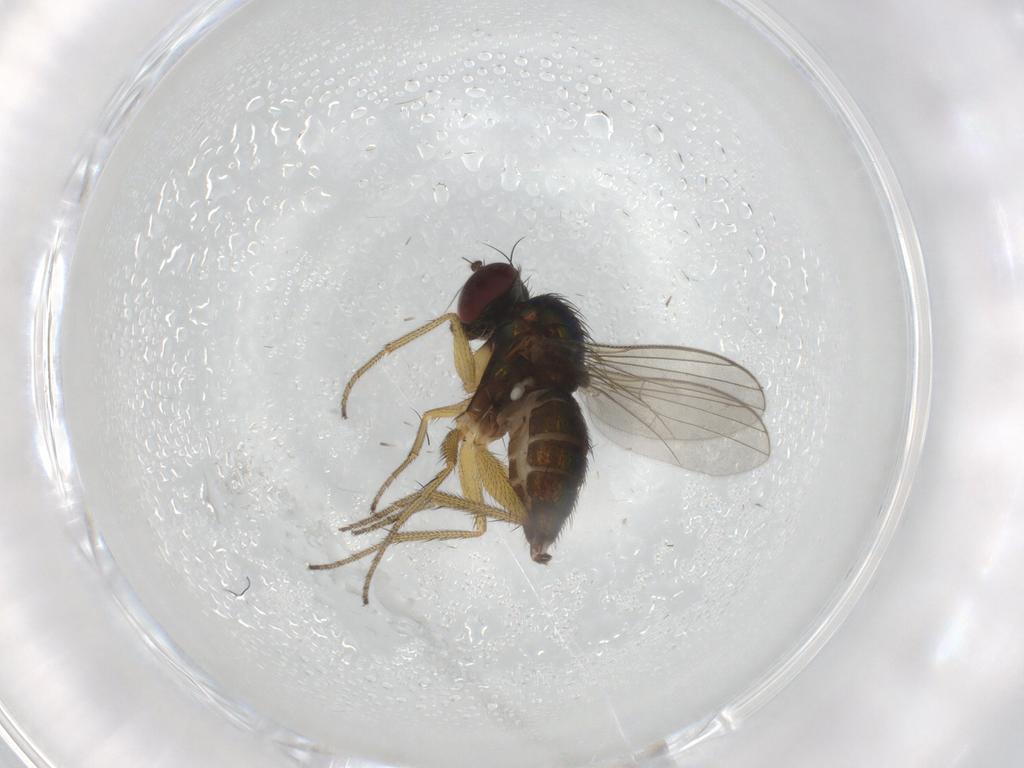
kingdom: Animalia
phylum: Arthropoda
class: Insecta
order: Diptera
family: Dolichopodidae
